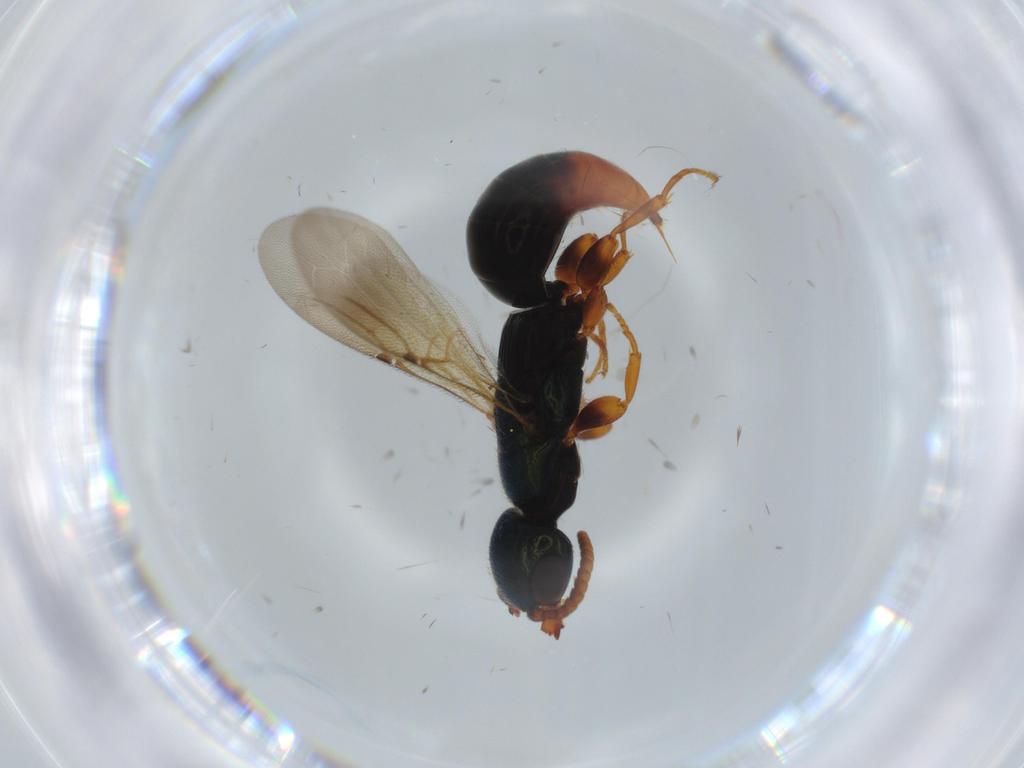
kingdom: Animalia
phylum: Arthropoda
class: Insecta
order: Hymenoptera
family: Bethylidae
